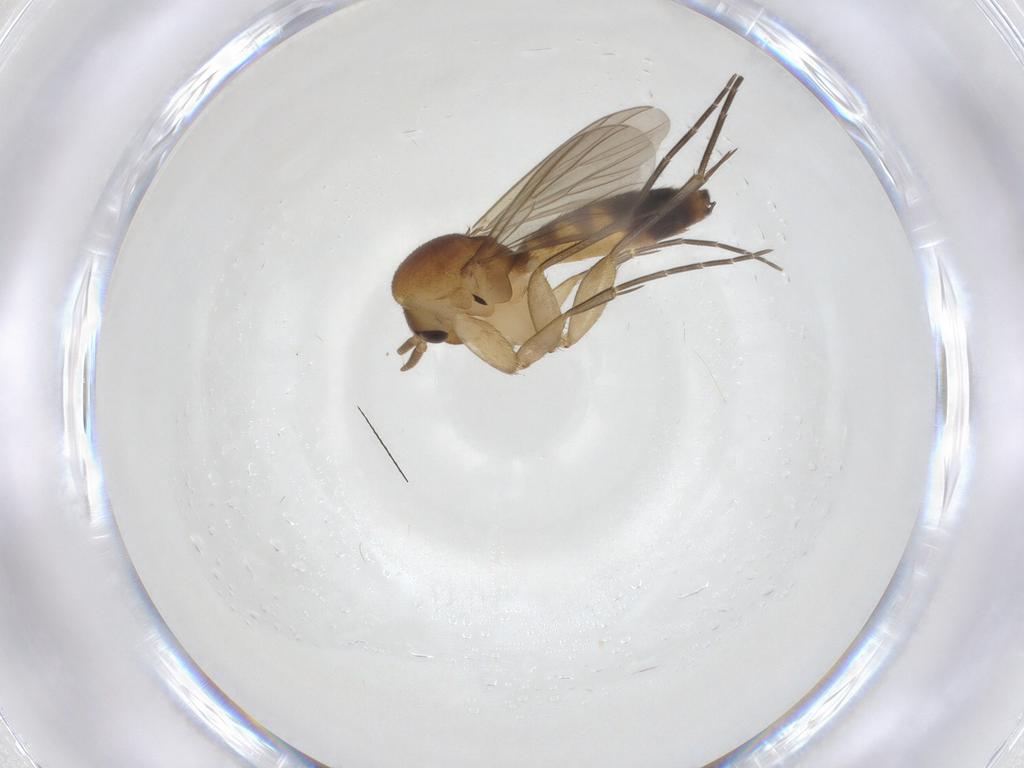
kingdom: Animalia
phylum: Arthropoda
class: Insecta
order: Diptera
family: Mycetophilidae
